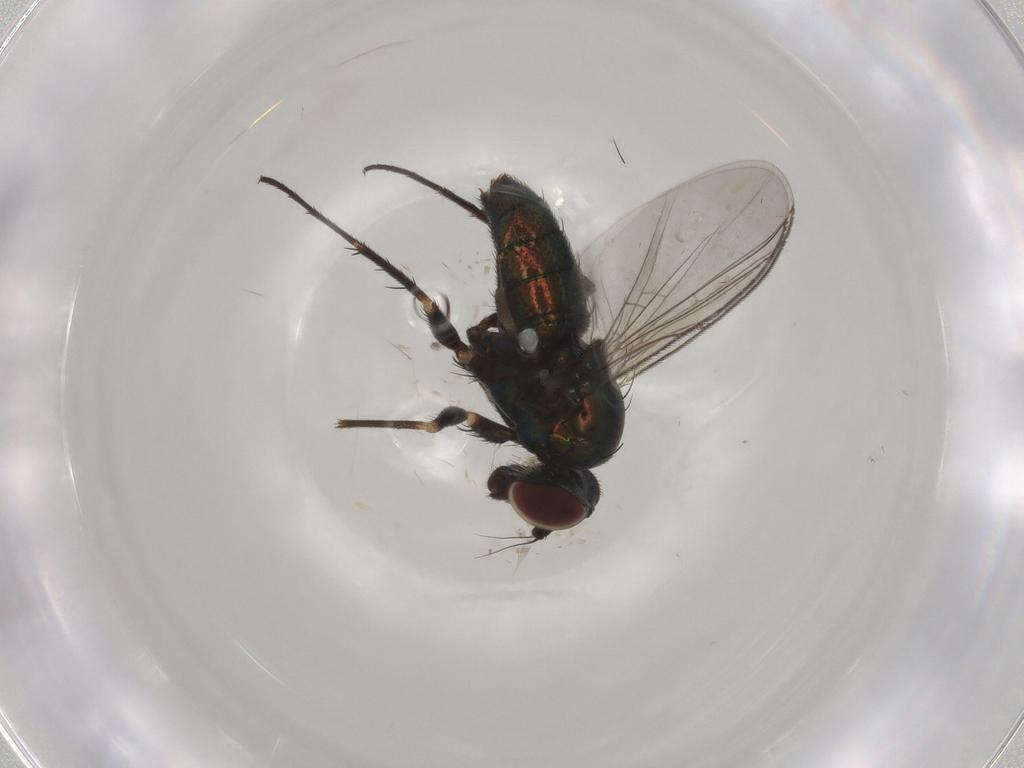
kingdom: Animalia
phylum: Arthropoda
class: Insecta
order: Diptera
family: Dolichopodidae
